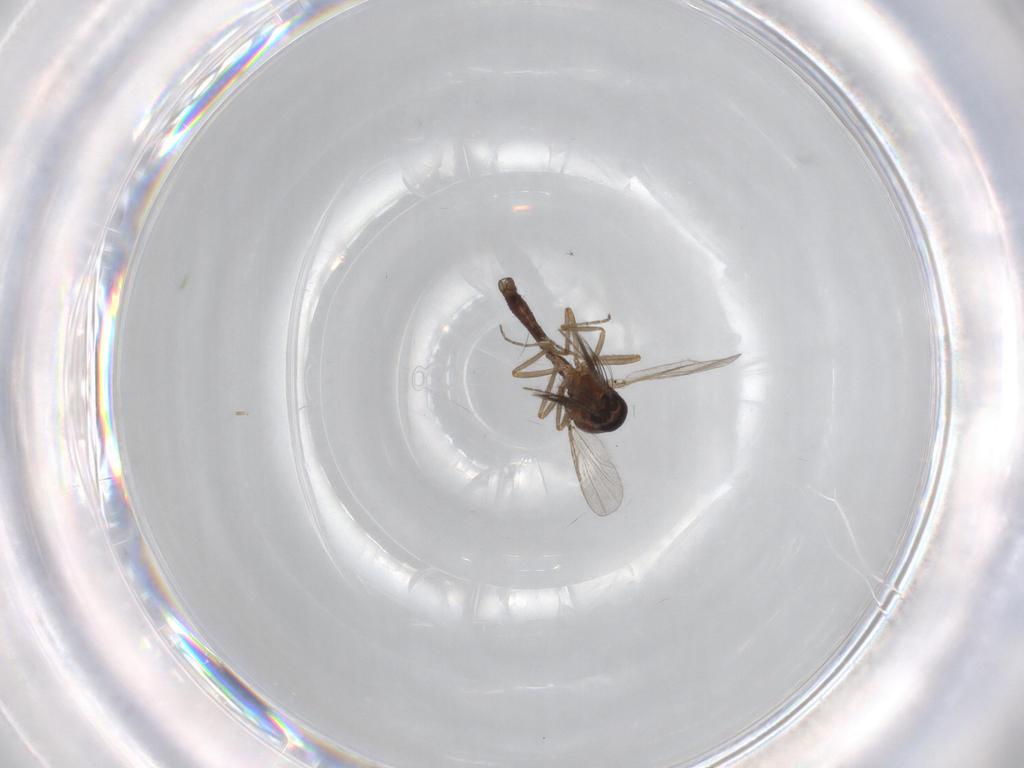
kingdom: Animalia
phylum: Arthropoda
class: Insecta
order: Diptera
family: Ceratopogonidae
